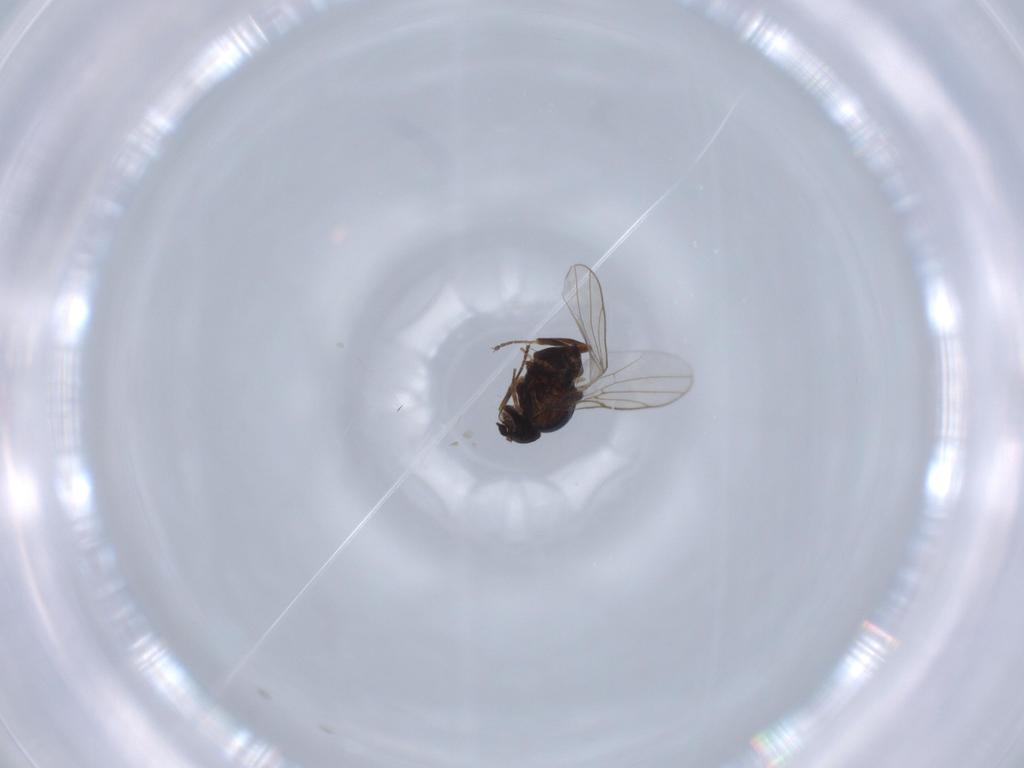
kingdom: Animalia
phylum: Arthropoda
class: Insecta
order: Diptera
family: Chloropidae
